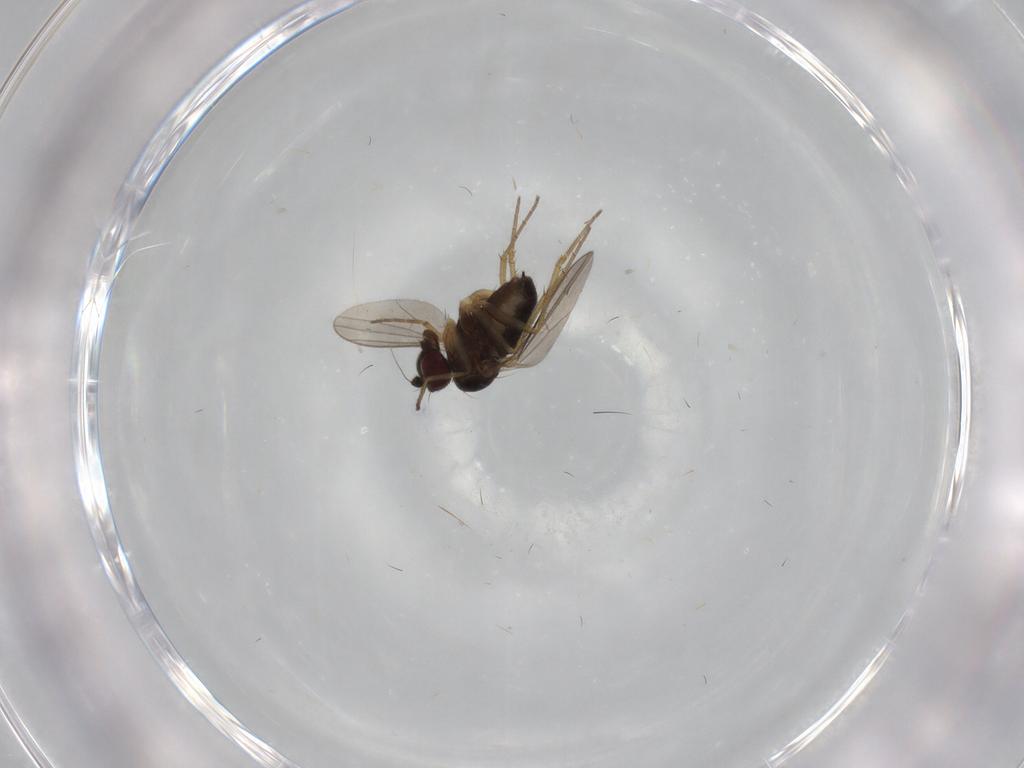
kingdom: Animalia
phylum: Arthropoda
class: Insecta
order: Diptera
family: Dolichopodidae
